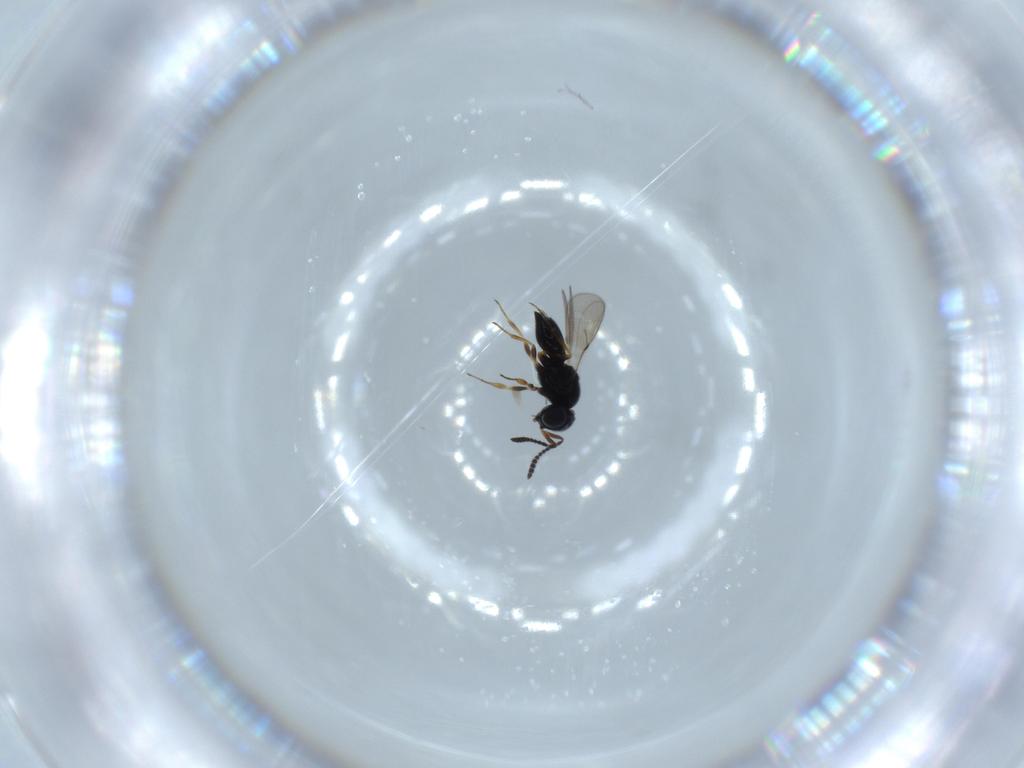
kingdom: Animalia
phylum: Arthropoda
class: Insecta
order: Hymenoptera
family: Scelionidae
